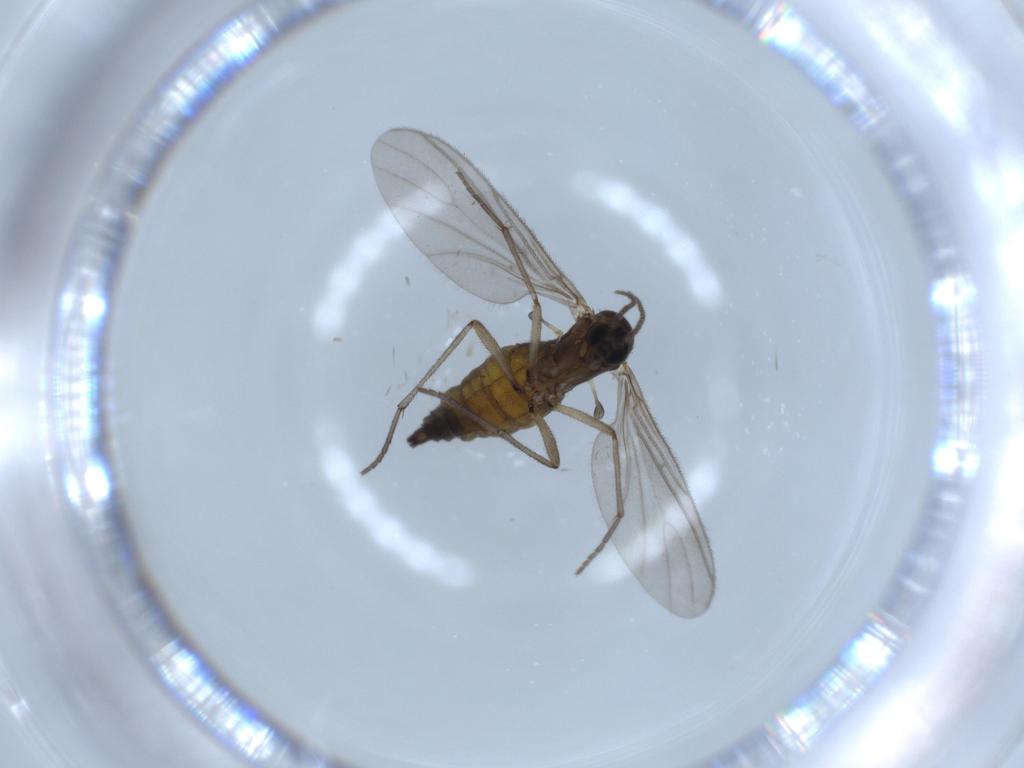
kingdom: Animalia
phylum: Arthropoda
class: Insecta
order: Diptera
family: Sciaridae
